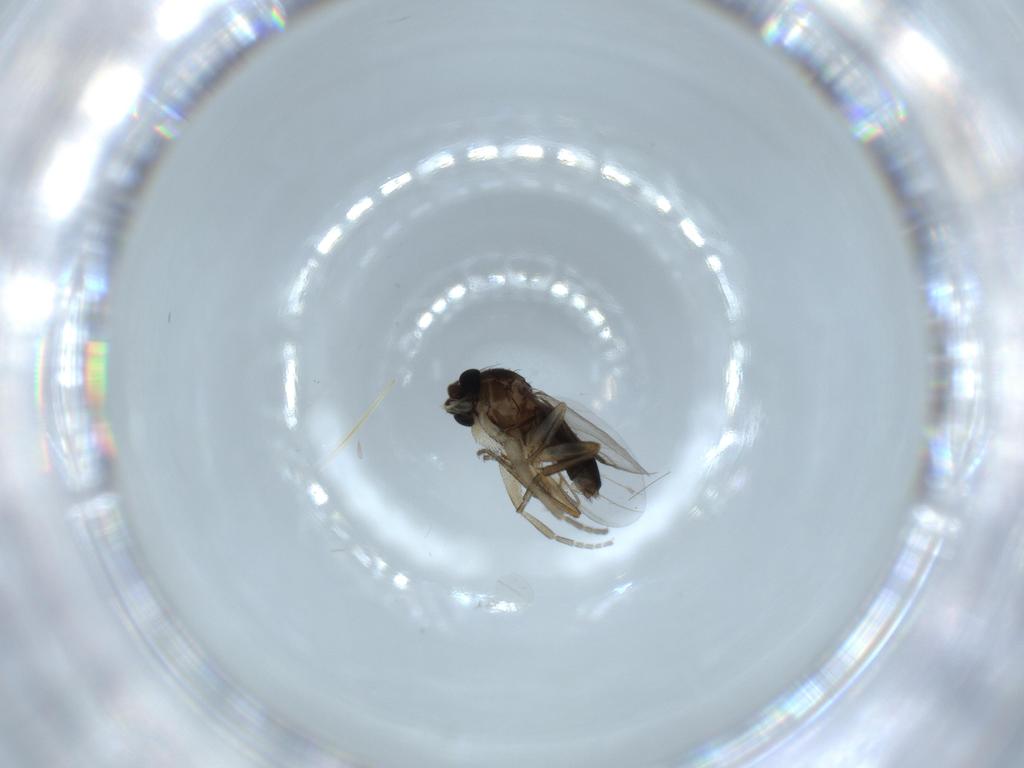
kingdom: Animalia
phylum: Arthropoda
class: Insecta
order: Diptera
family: Sciaridae
